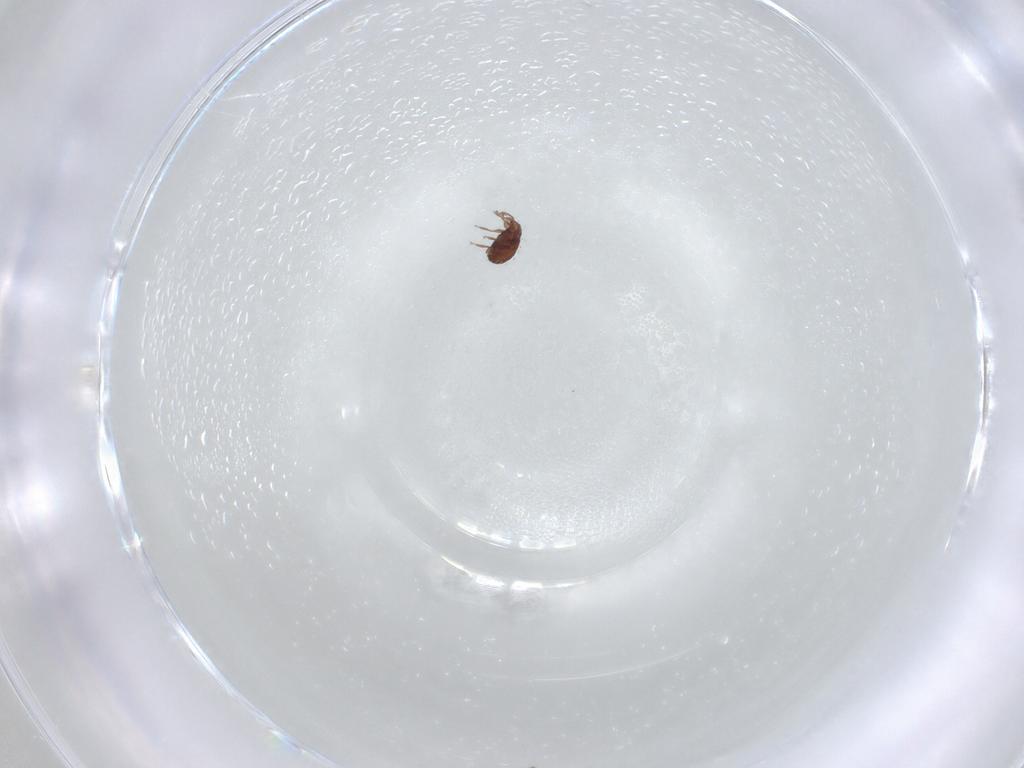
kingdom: Animalia
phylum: Arthropoda
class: Arachnida
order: Sarcoptiformes
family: Scheloribatidae
